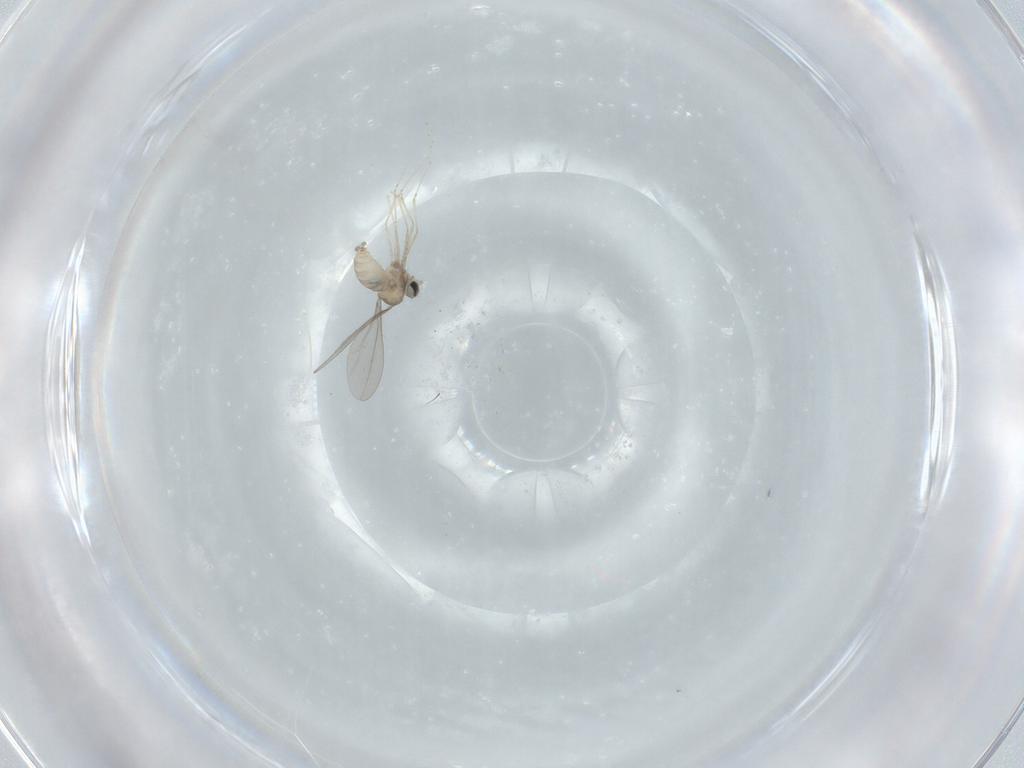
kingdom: Animalia
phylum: Arthropoda
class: Insecta
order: Diptera
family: Cecidomyiidae
